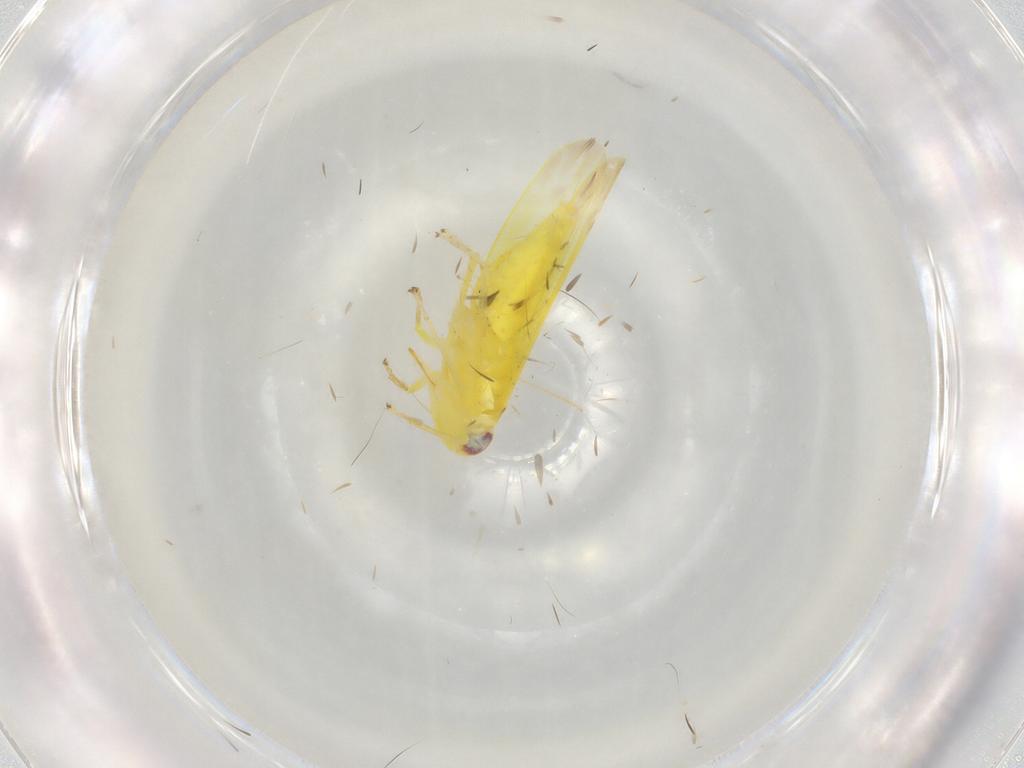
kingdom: Animalia
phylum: Arthropoda
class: Insecta
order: Hemiptera
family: Cicadellidae
